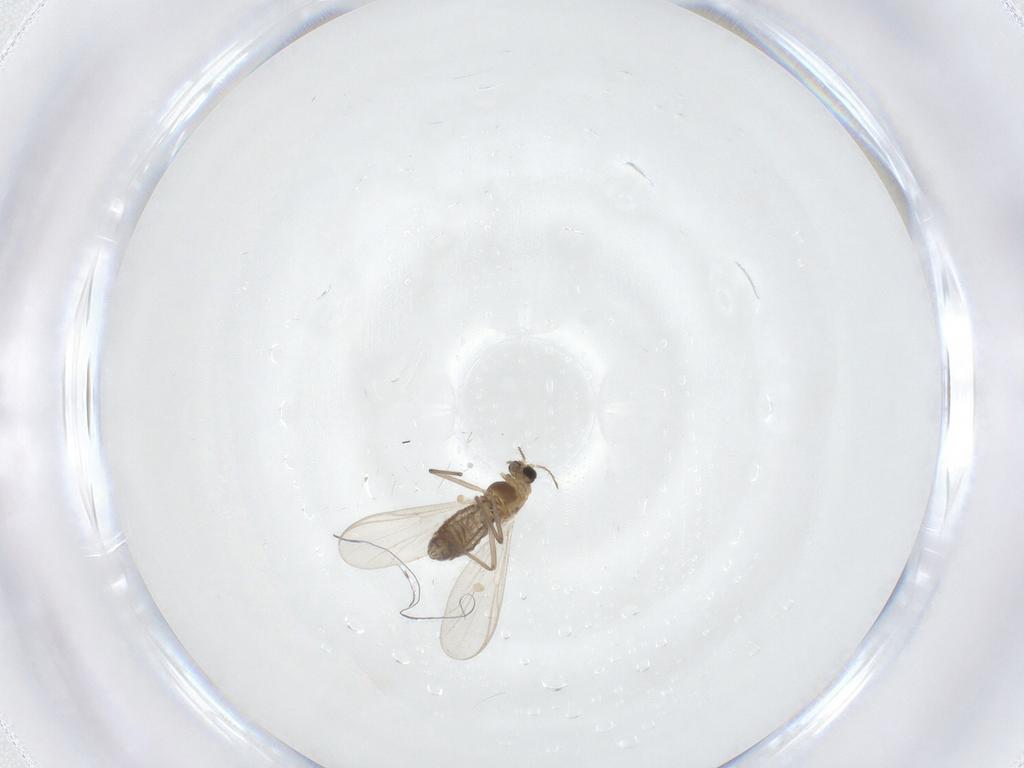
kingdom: Animalia
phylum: Arthropoda
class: Insecta
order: Diptera
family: Chironomidae
